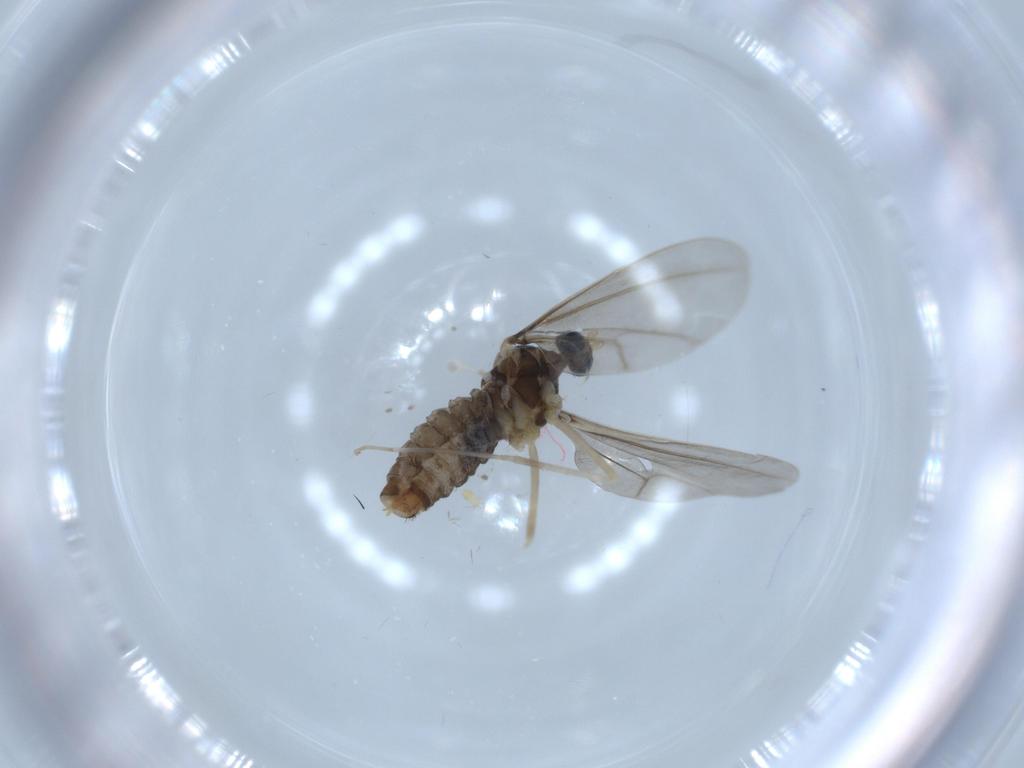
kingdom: Animalia
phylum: Arthropoda
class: Insecta
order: Diptera
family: Cecidomyiidae
